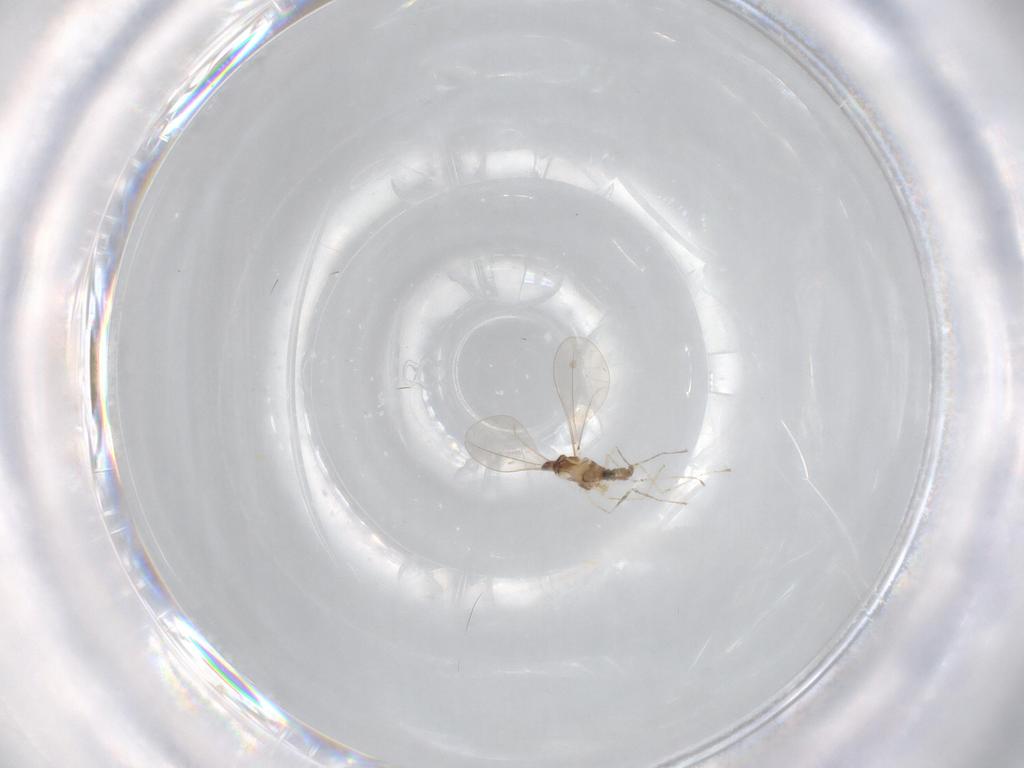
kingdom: Animalia
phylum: Arthropoda
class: Insecta
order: Diptera
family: Cecidomyiidae
